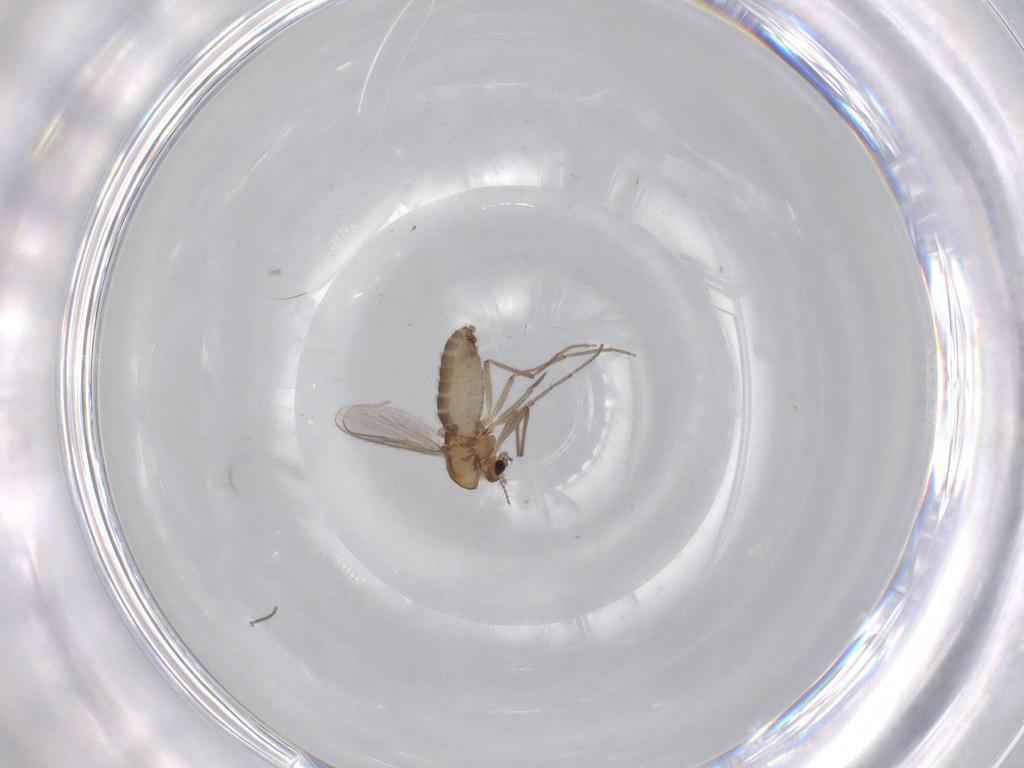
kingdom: Animalia
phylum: Arthropoda
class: Insecta
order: Diptera
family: Chironomidae
